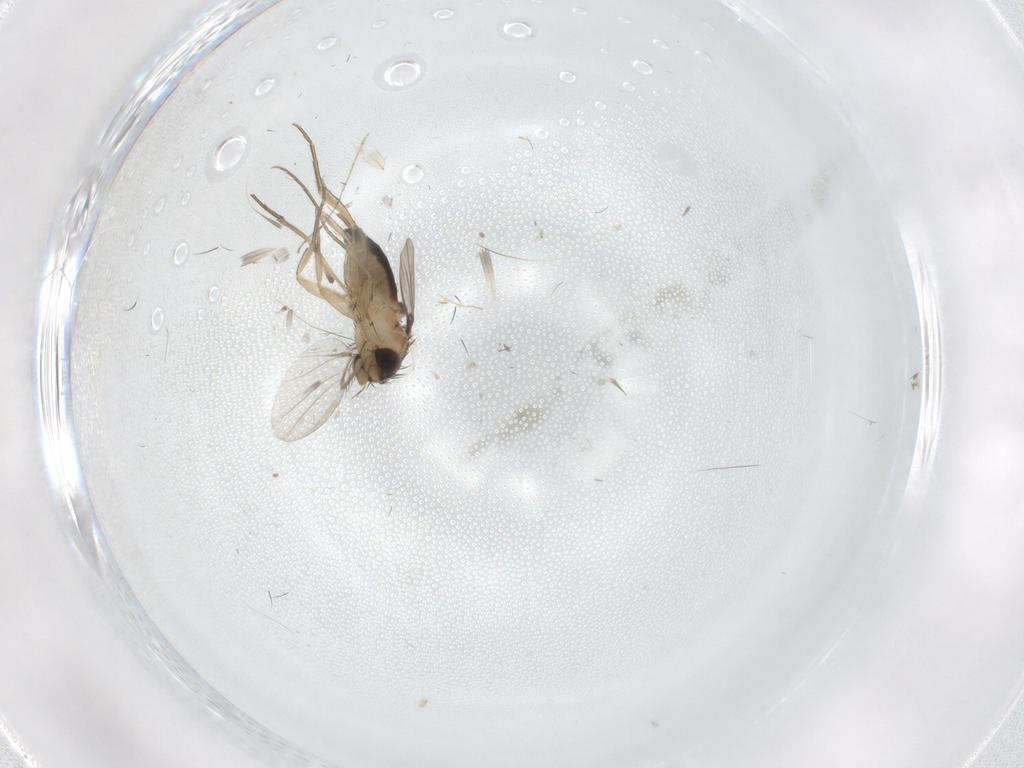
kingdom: Animalia
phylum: Arthropoda
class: Insecta
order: Diptera
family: Phoridae
